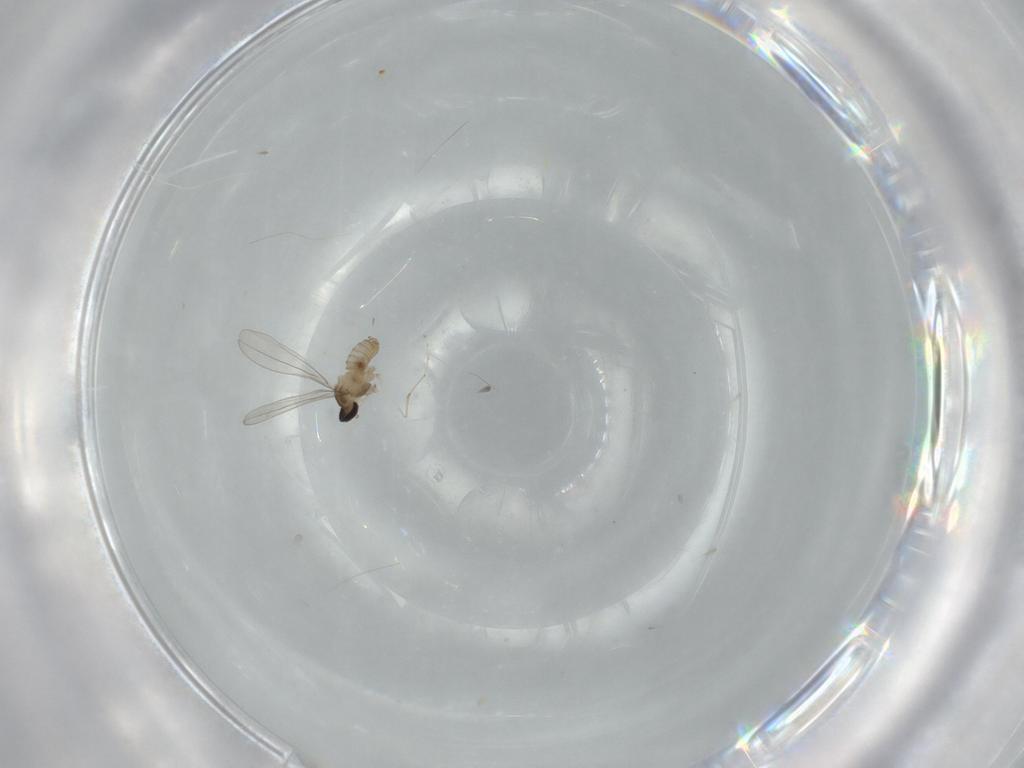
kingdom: Animalia
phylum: Arthropoda
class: Insecta
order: Diptera
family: Cecidomyiidae
